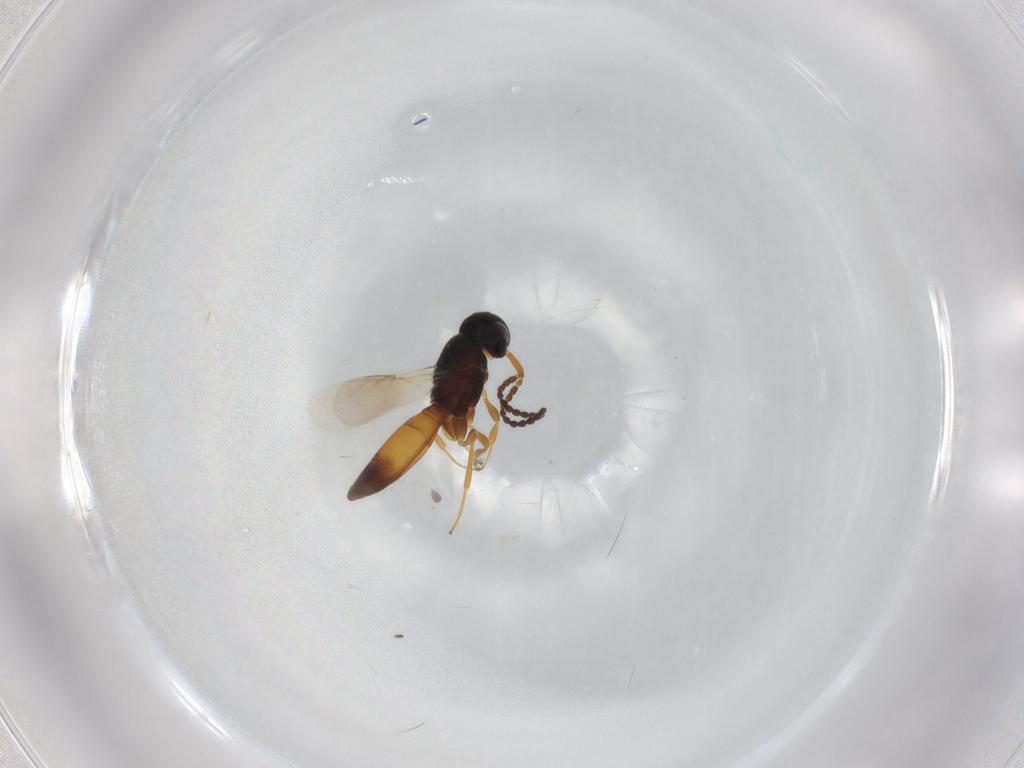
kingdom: Animalia
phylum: Arthropoda
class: Insecta
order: Hymenoptera
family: Scelionidae
